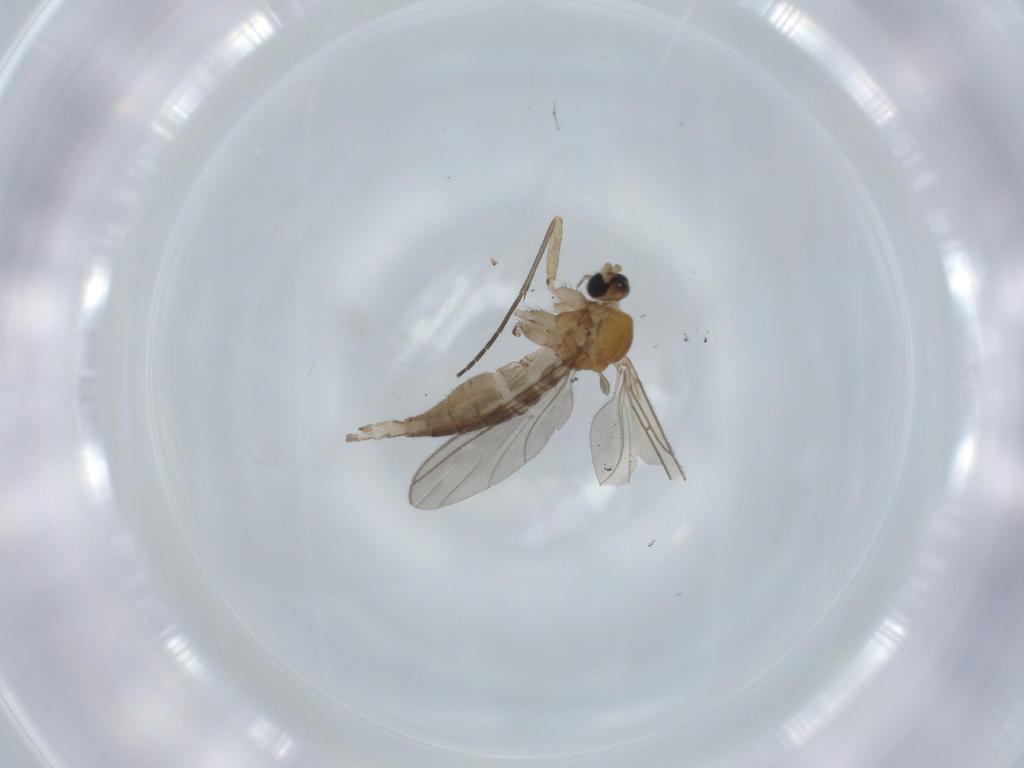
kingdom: Animalia
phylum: Arthropoda
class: Insecta
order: Diptera
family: Sciaridae
